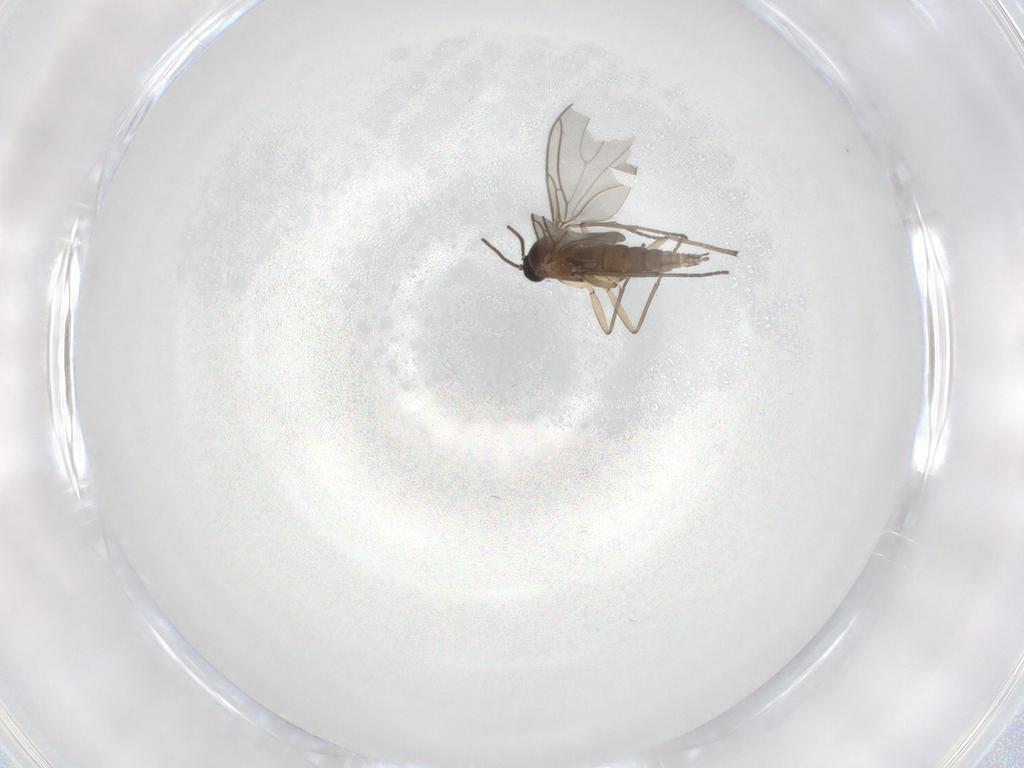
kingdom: Animalia
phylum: Arthropoda
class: Insecta
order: Diptera
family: Sciaridae
